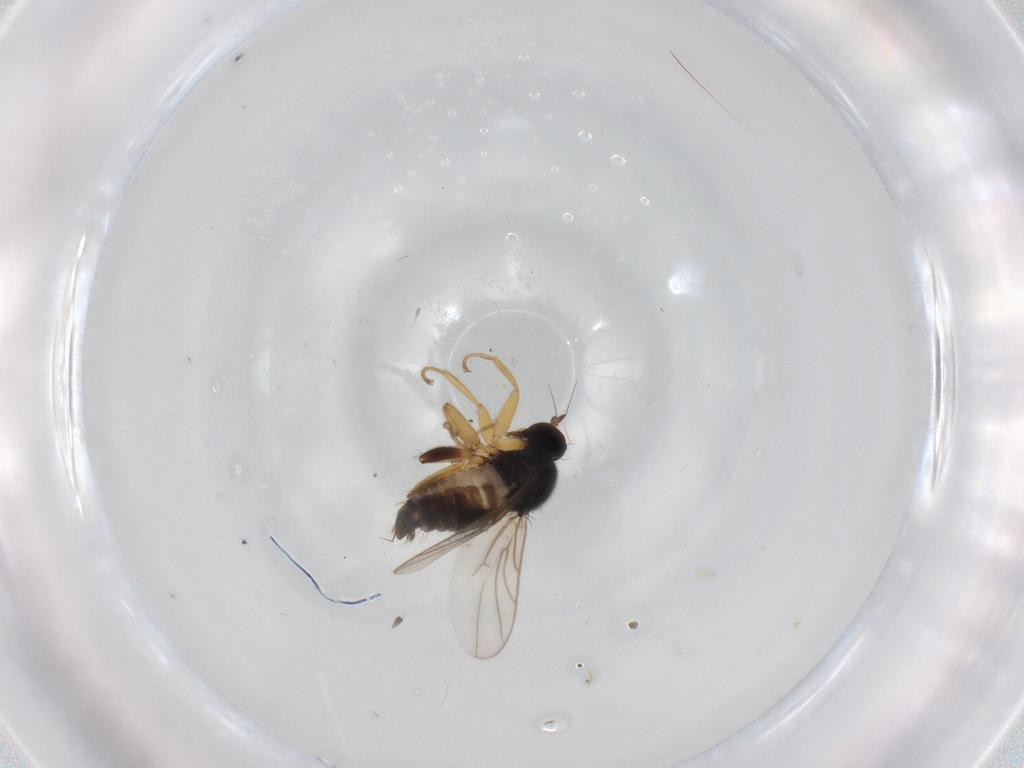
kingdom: Animalia
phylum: Arthropoda
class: Insecta
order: Diptera
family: Hybotidae
